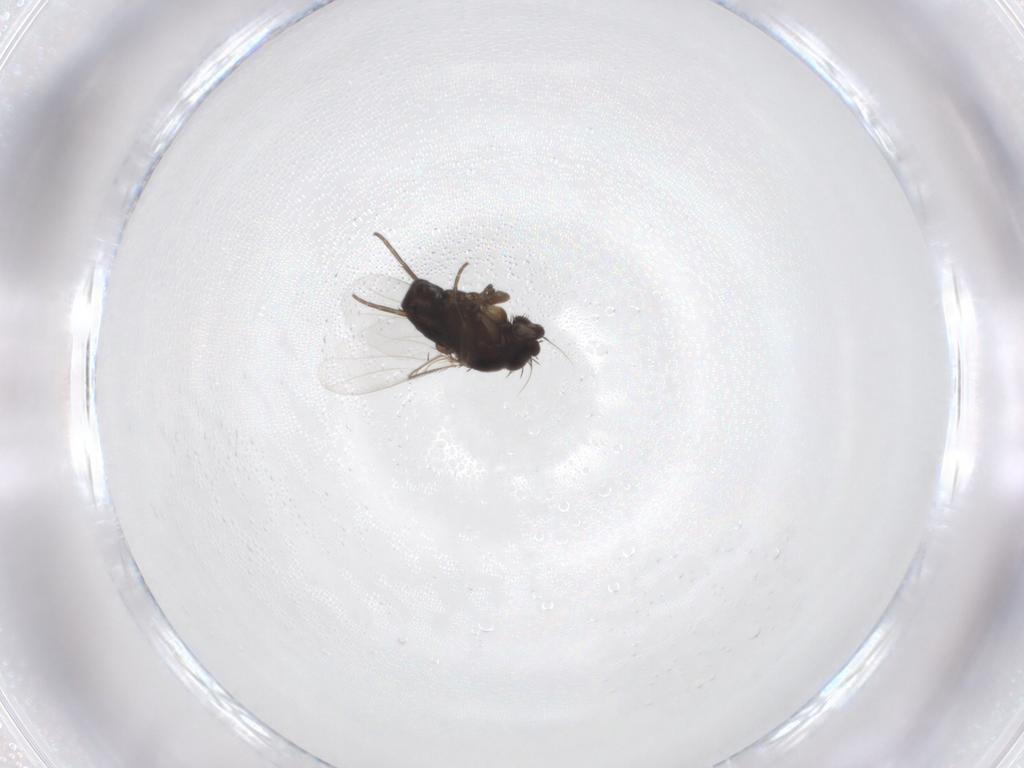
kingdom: Animalia
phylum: Arthropoda
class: Insecta
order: Diptera
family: Phoridae
